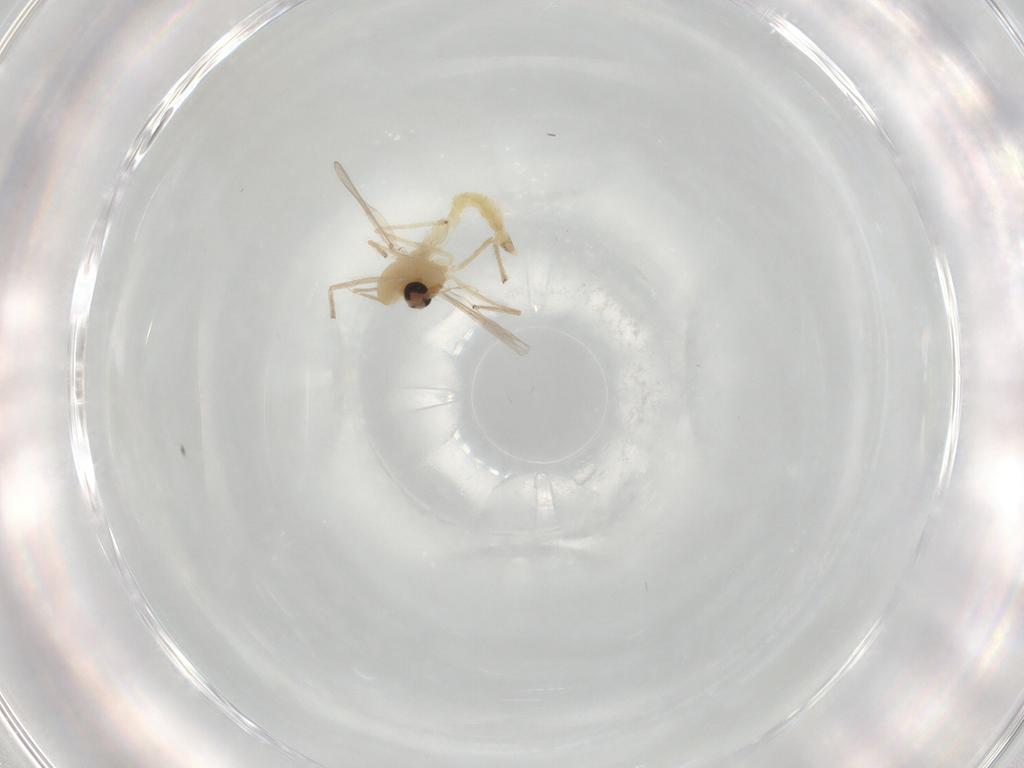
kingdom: Animalia
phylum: Arthropoda
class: Insecta
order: Diptera
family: Chironomidae
